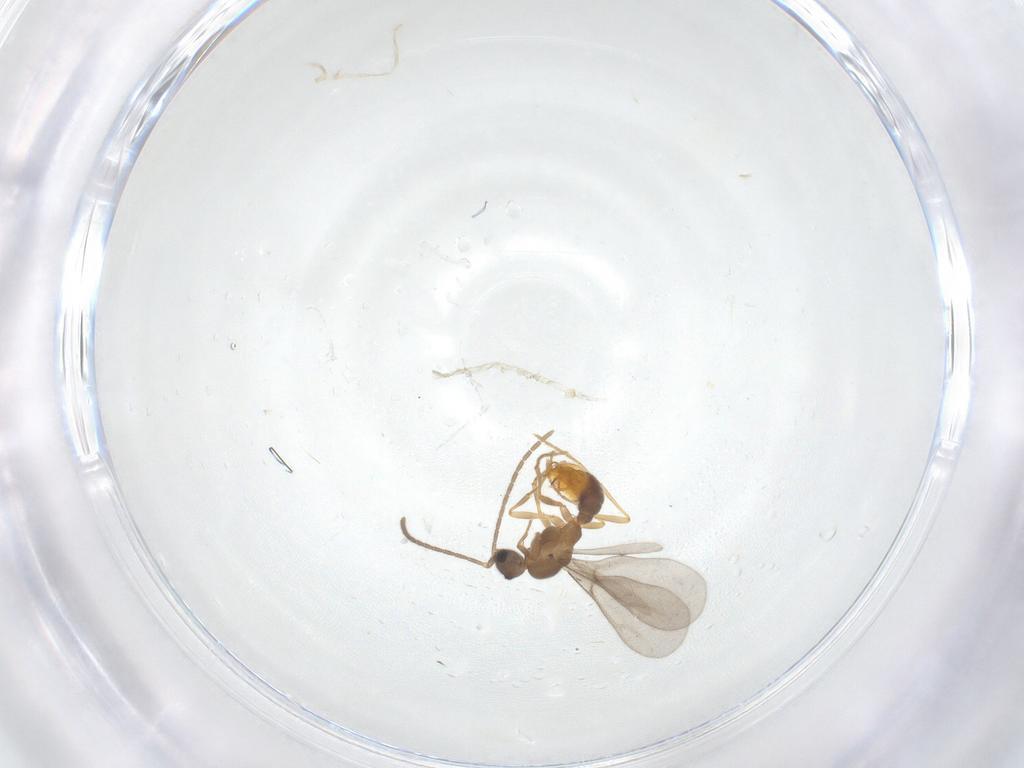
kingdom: Animalia
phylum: Arthropoda
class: Insecta
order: Hymenoptera
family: Formicidae
